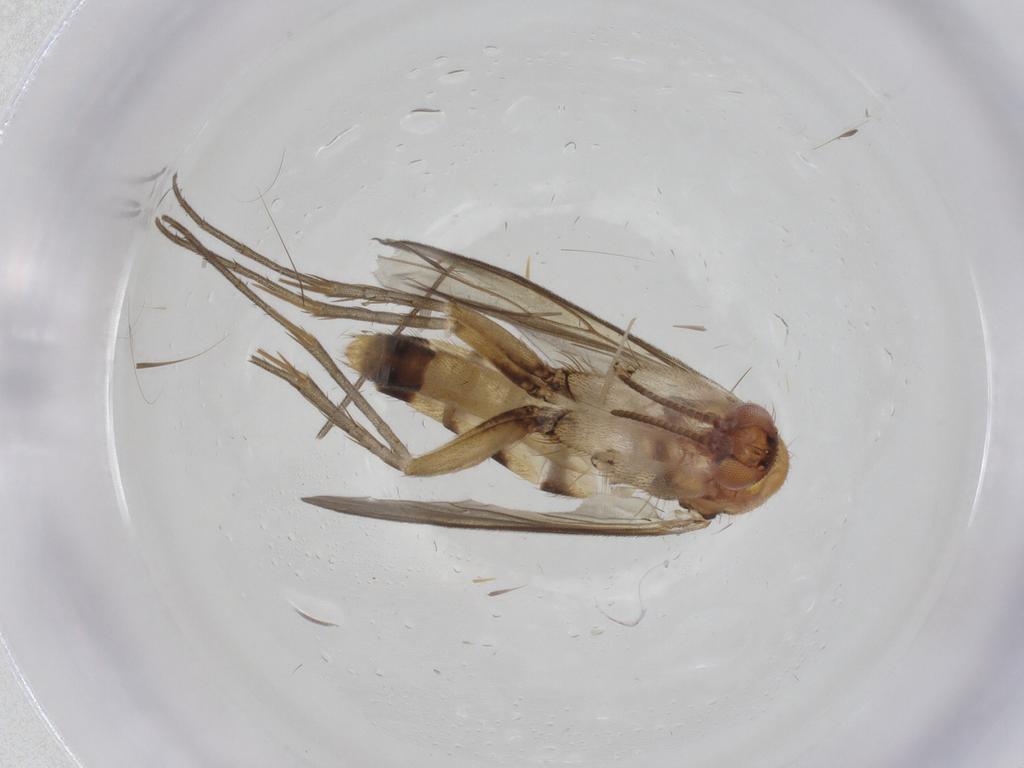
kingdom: Animalia
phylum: Arthropoda
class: Insecta
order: Diptera
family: Mycetophilidae
